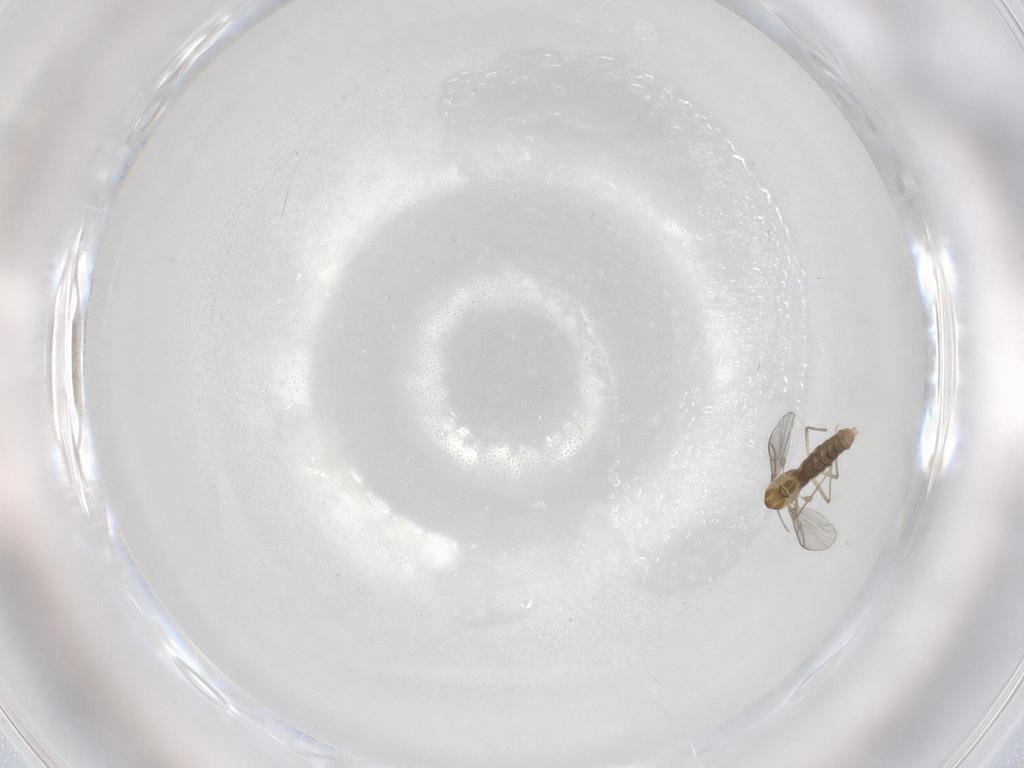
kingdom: Animalia
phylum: Arthropoda
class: Insecta
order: Diptera
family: Chironomidae
